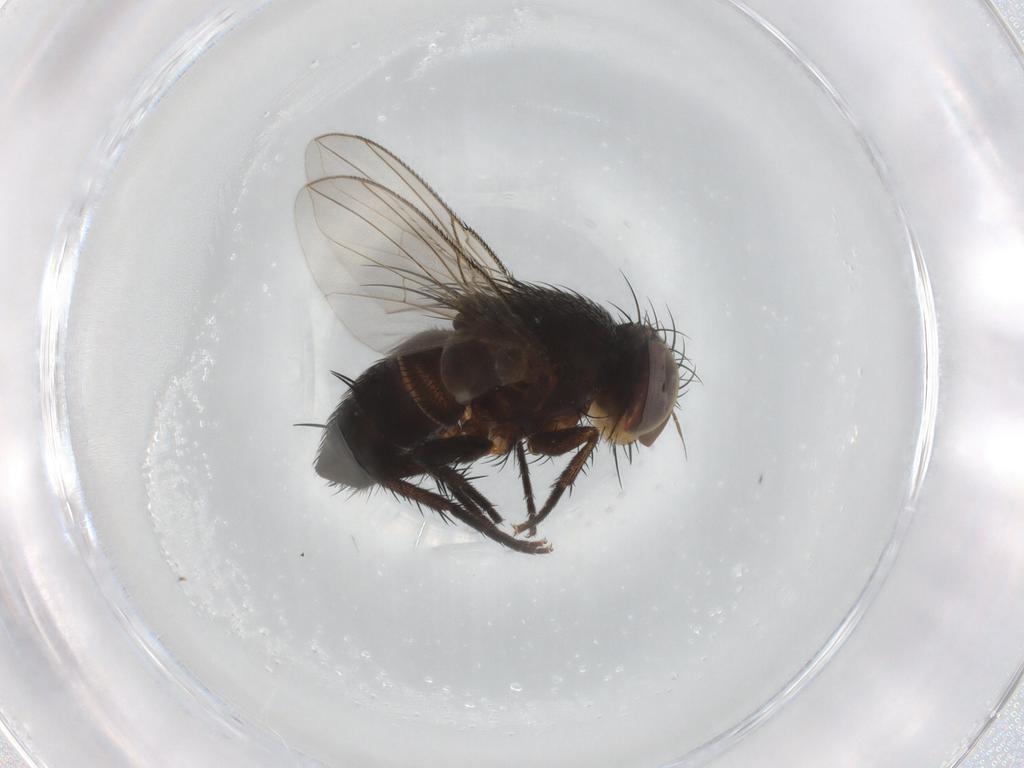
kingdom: Animalia
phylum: Arthropoda
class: Insecta
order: Diptera
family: Tachinidae
